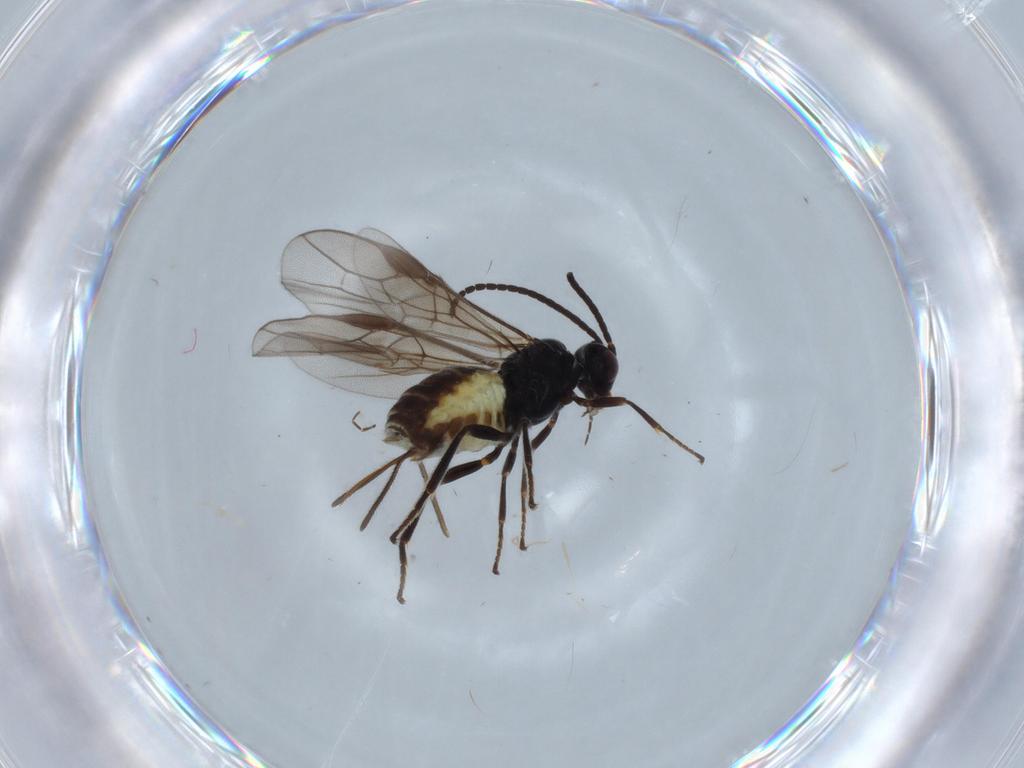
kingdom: Animalia
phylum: Arthropoda
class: Insecta
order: Hymenoptera
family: Braconidae
